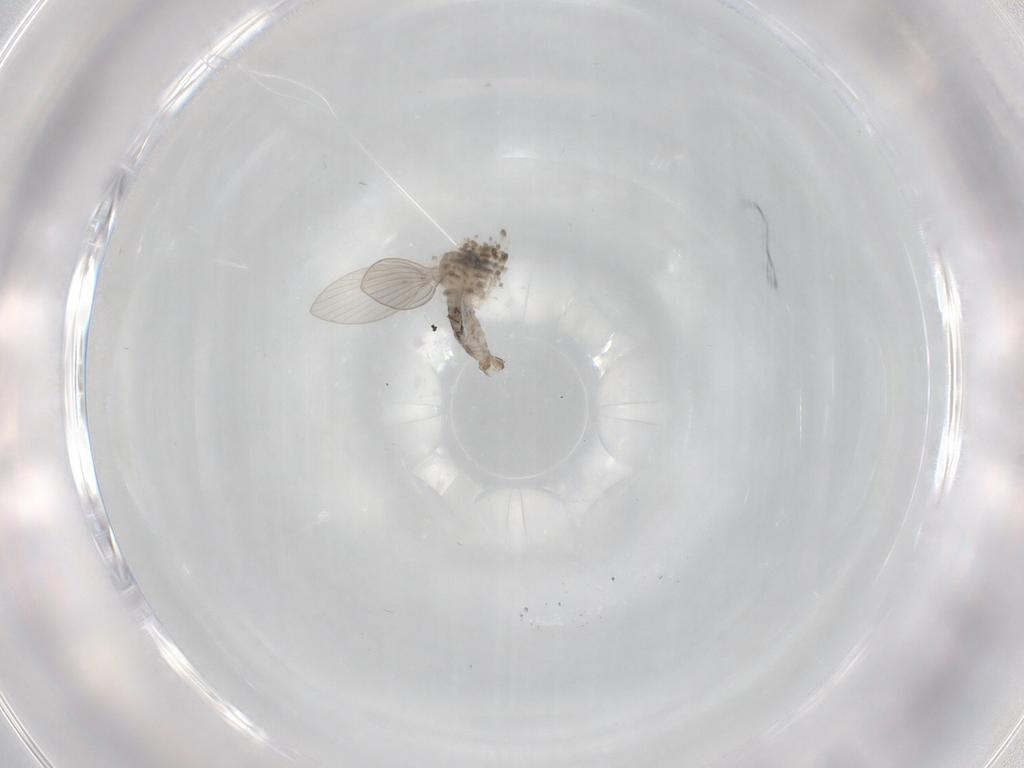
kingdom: Animalia
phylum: Arthropoda
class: Insecta
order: Diptera
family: Psychodidae
